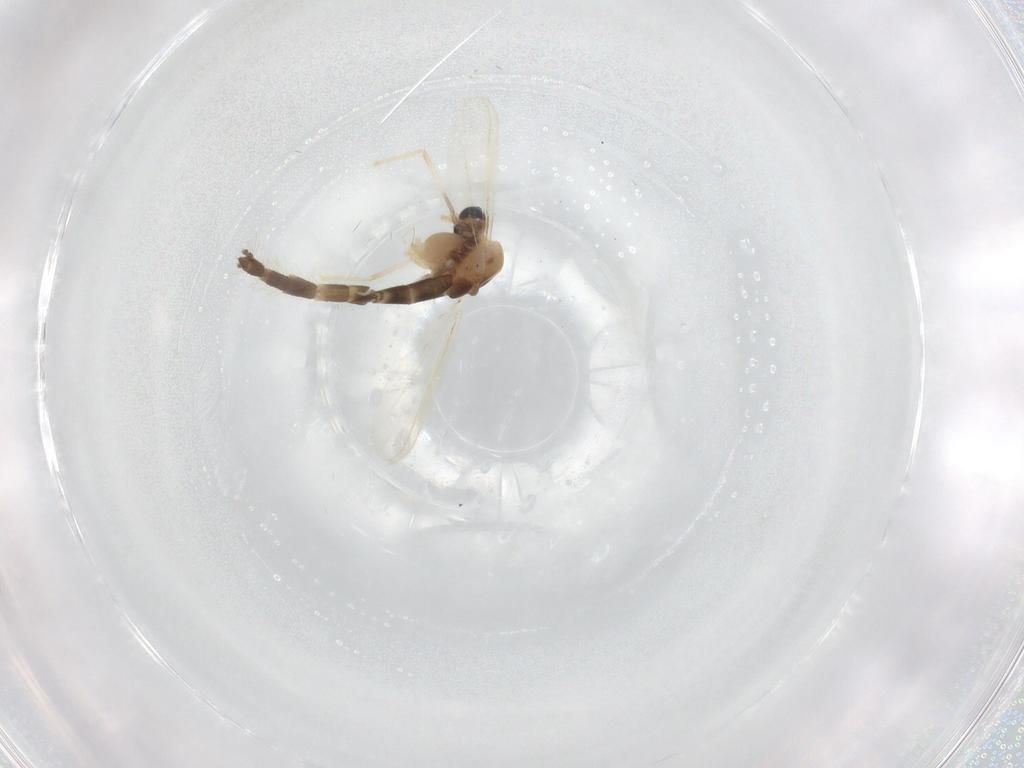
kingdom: Animalia
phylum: Arthropoda
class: Insecta
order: Diptera
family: Chironomidae
